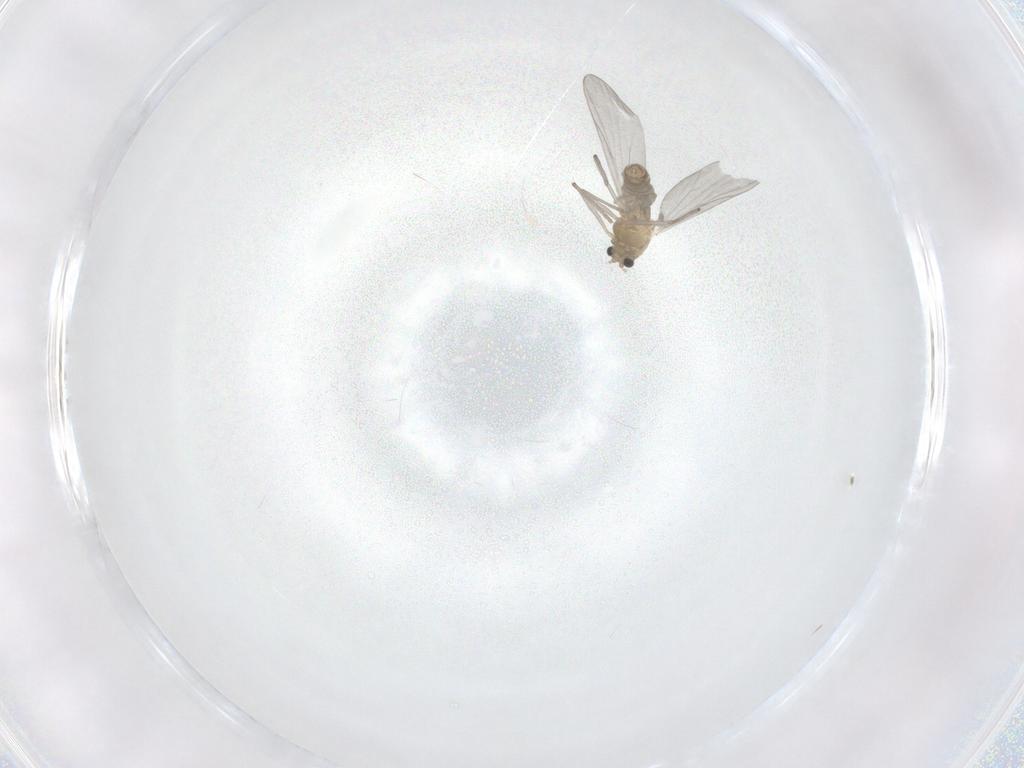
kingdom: Animalia
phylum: Arthropoda
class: Insecta
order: Diptera
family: Chironomidae
